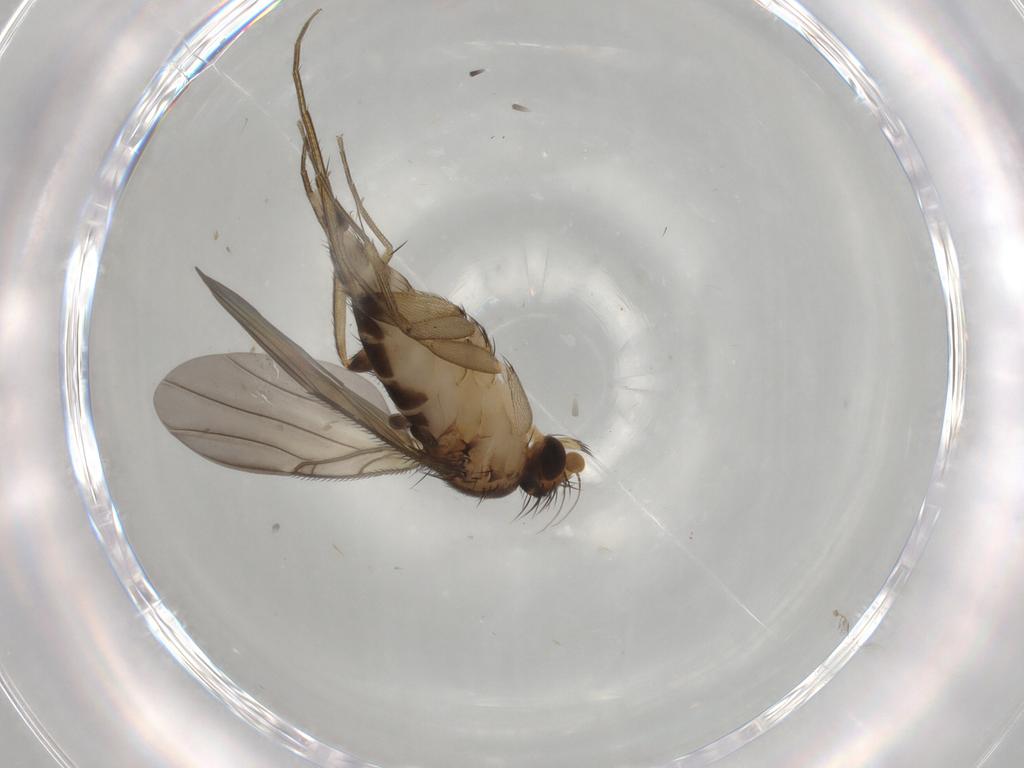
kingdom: Animalia
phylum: Arthropoda
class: Insecta
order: Diptera
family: Phoridae
